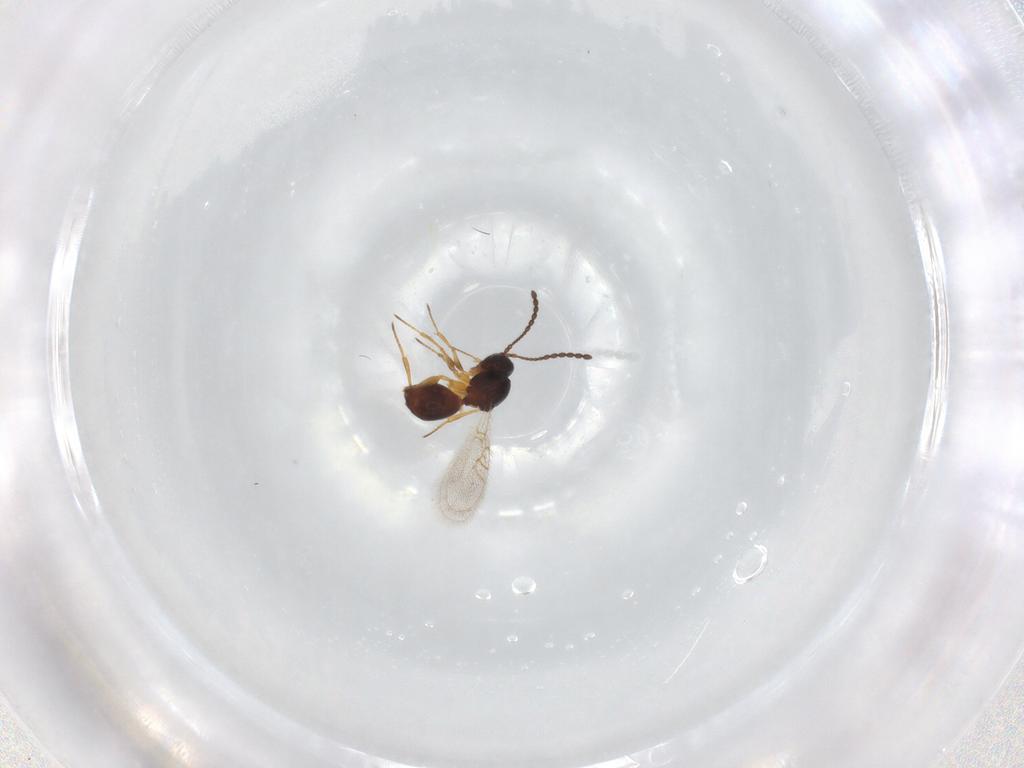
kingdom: Animalia
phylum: Arthropoda
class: Insecta
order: Hymenoptera
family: Figitidae
